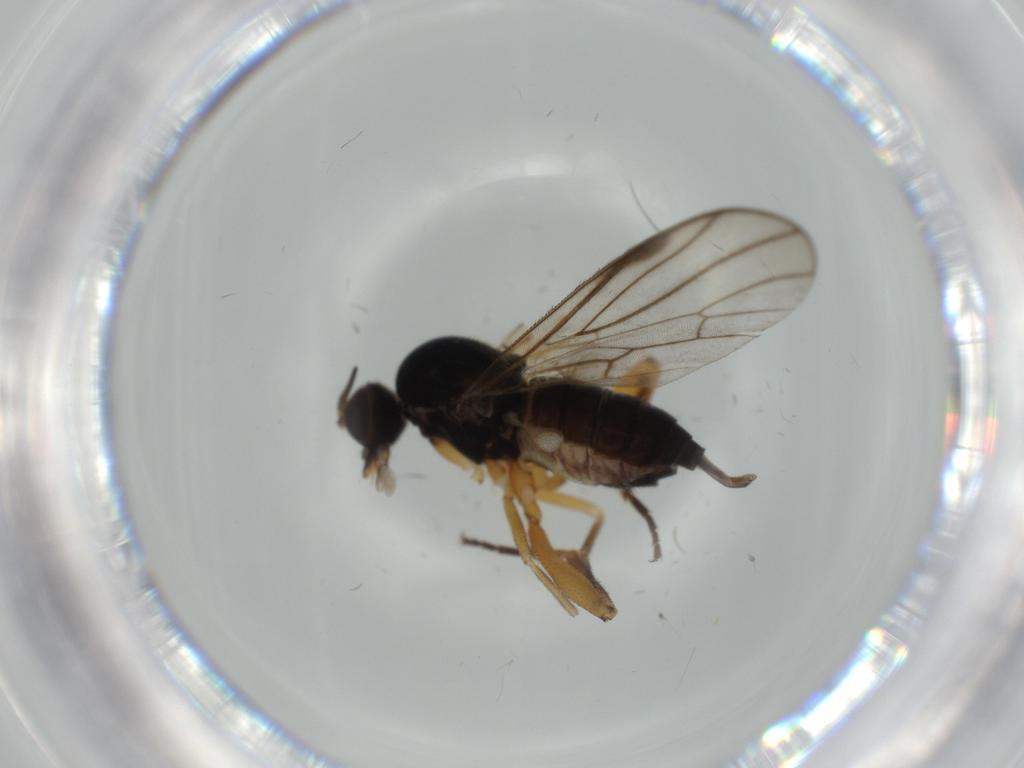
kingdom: Animalia
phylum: Arthropoda
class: Insecta
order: Diptera
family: Hybotidae
